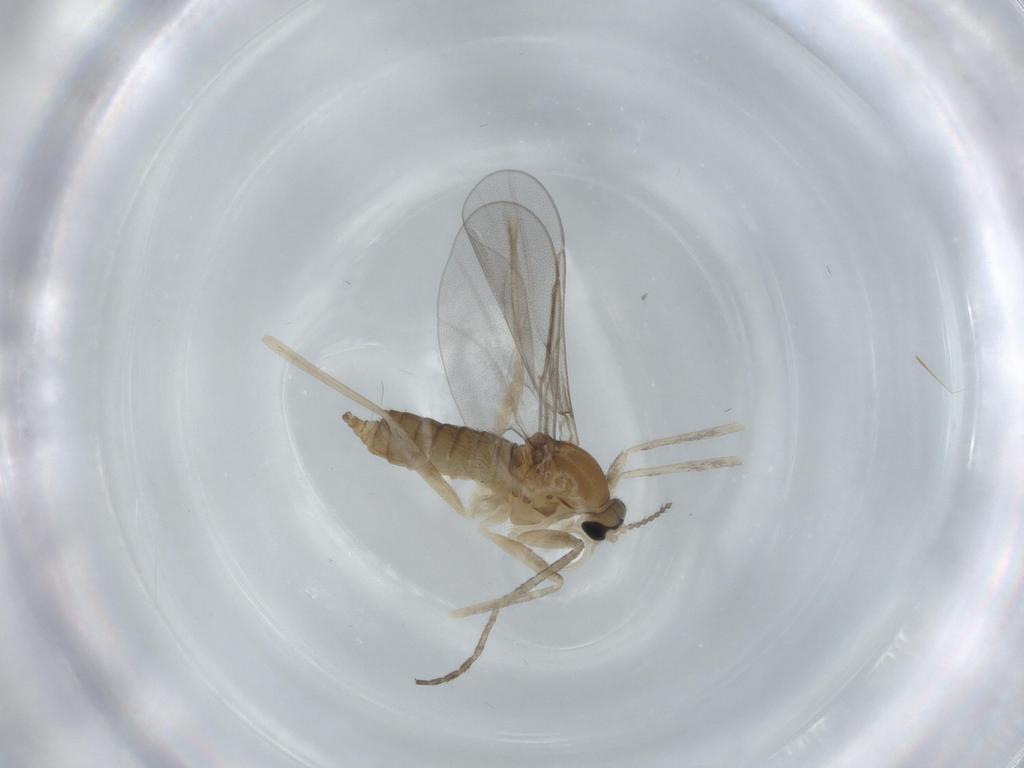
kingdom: Animalia
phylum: Arthropoda
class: Insecta
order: Diptera
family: Cecidomyiidae
